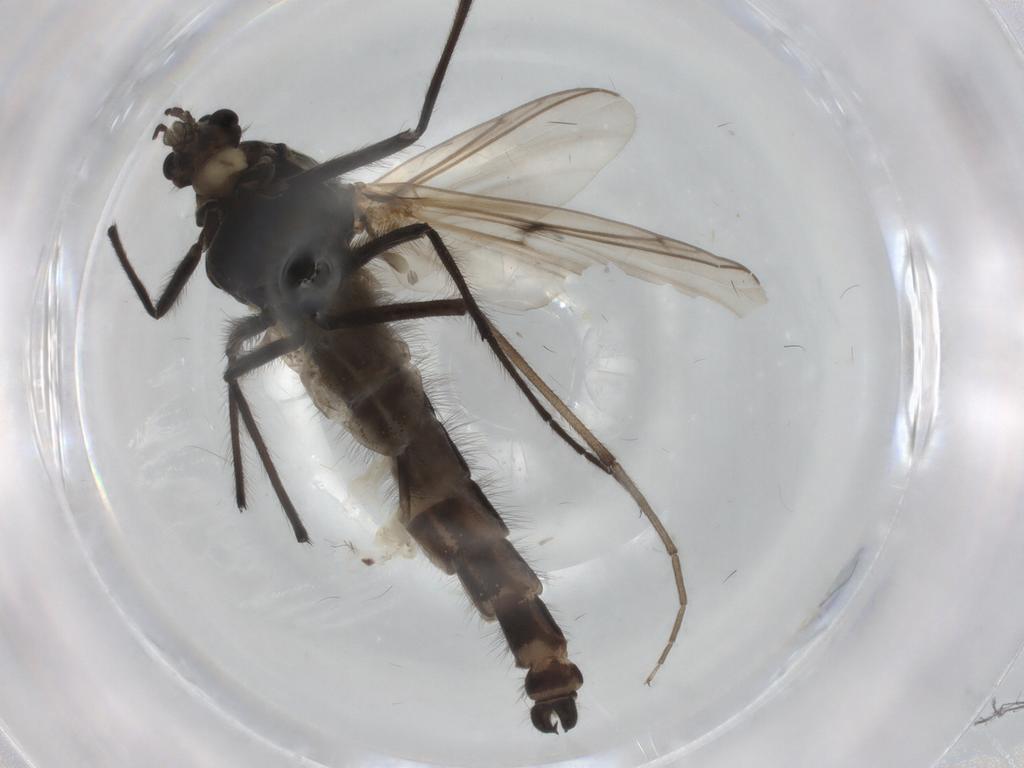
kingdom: Animalia
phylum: Arthropoda
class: Insecta
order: Diptera
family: Chironomidae
